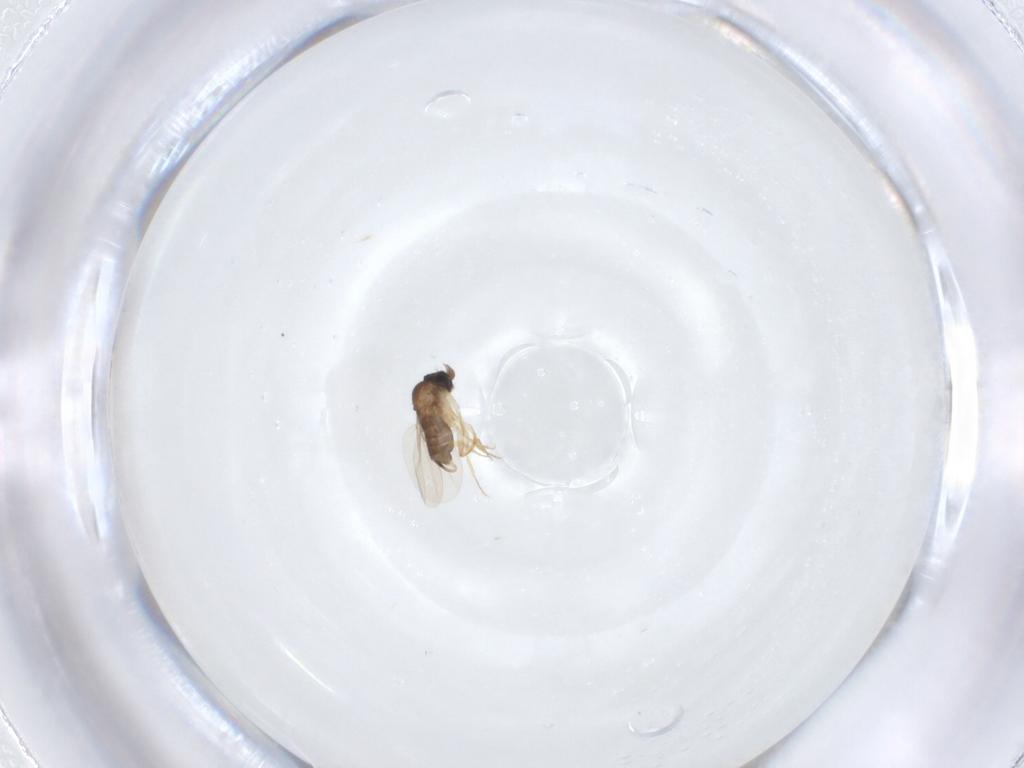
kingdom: Animalia
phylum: Arthropoda
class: Insecta
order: Diptera
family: Phoridae
